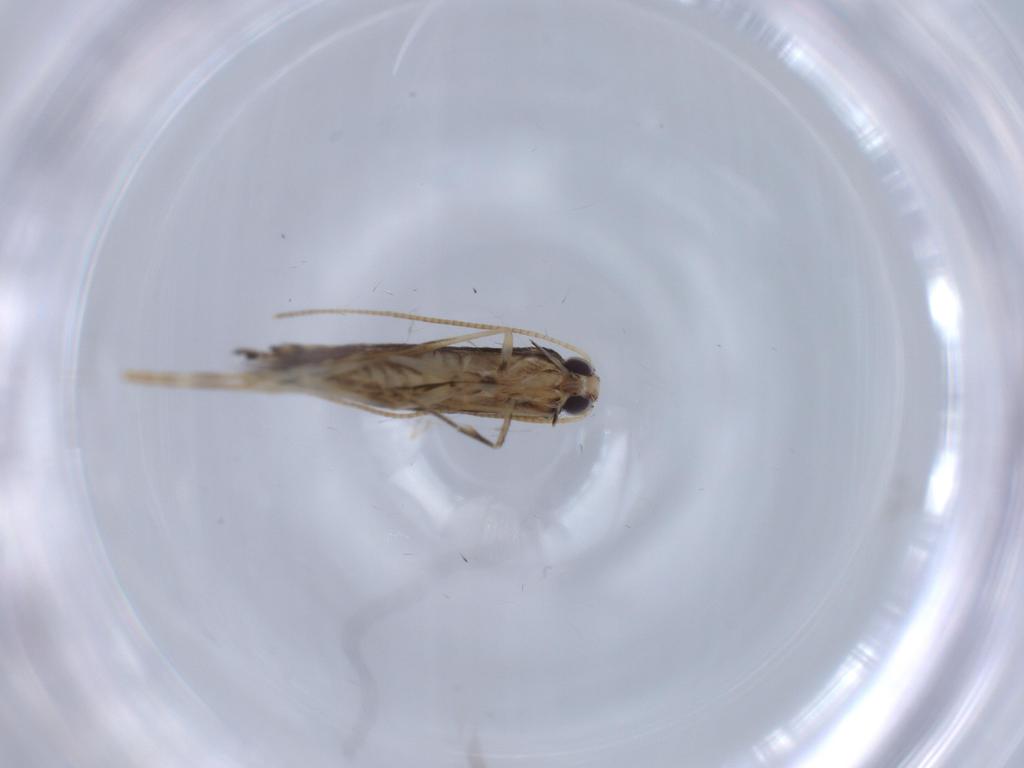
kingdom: Animalia
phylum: Arthropoda
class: Insecta
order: Lepidoptera
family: Gracillariidae
